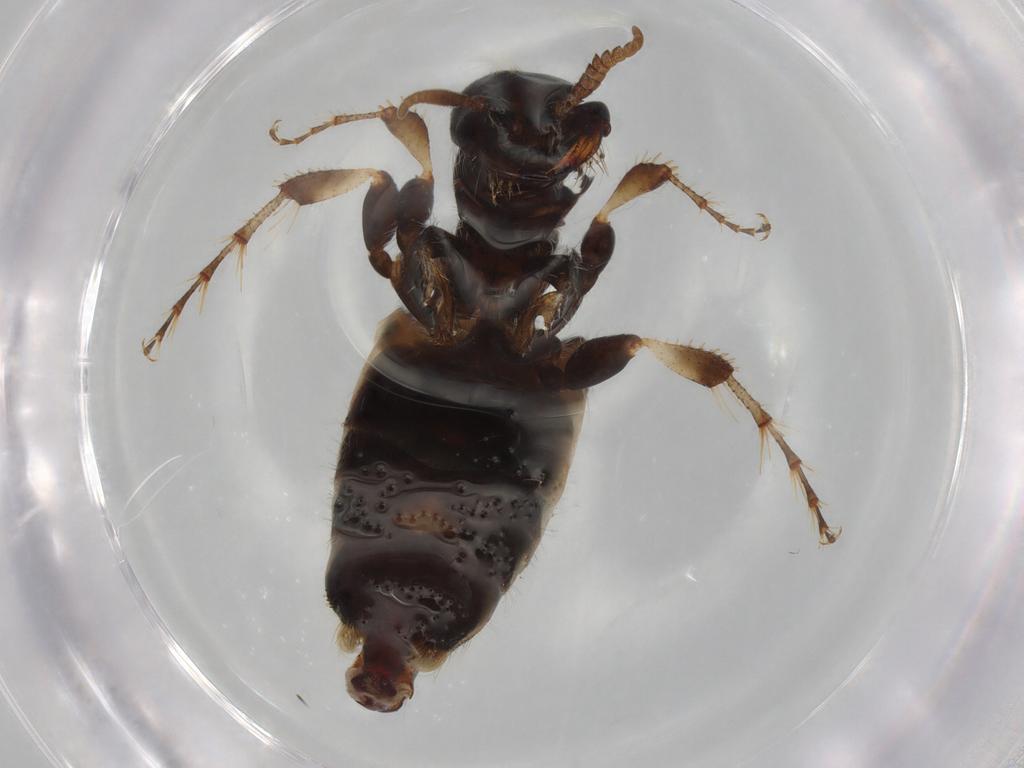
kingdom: Animalia
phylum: Arthropoda
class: Insecta
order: Hymenoptera
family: Thynnidae
